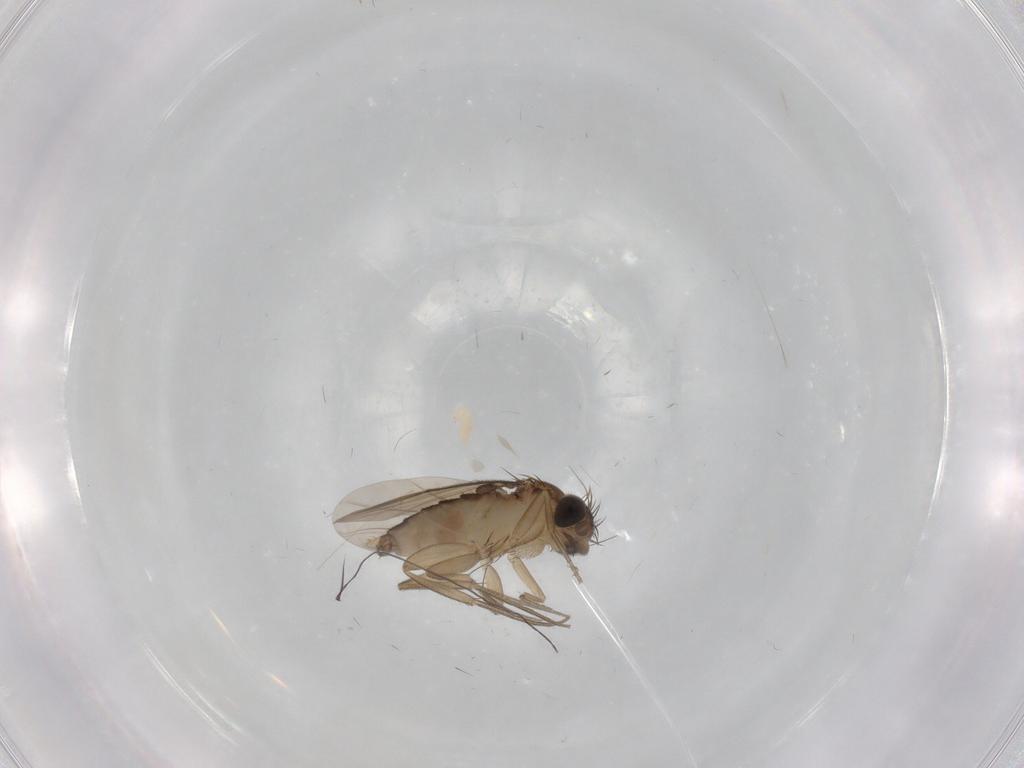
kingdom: Animalia
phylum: Arthropoda
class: Insecta
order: Diptera
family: Phoridae
